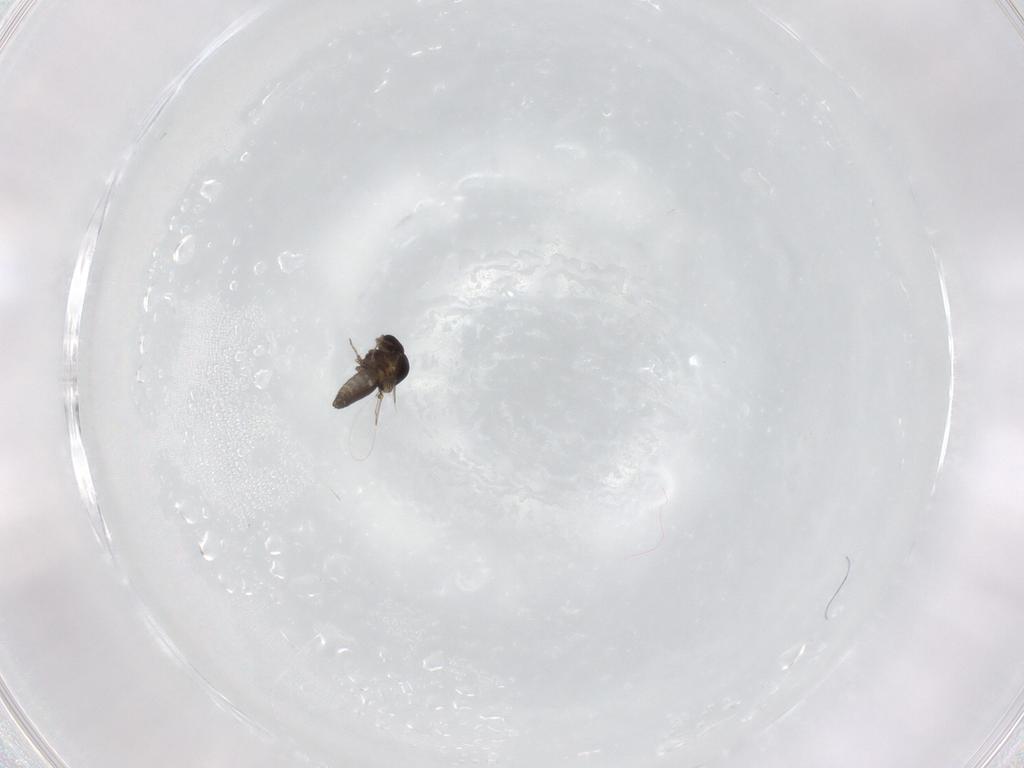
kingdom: Animalia
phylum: Arthropoda
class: Insecta
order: Diptera
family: Ceratopogonidae
